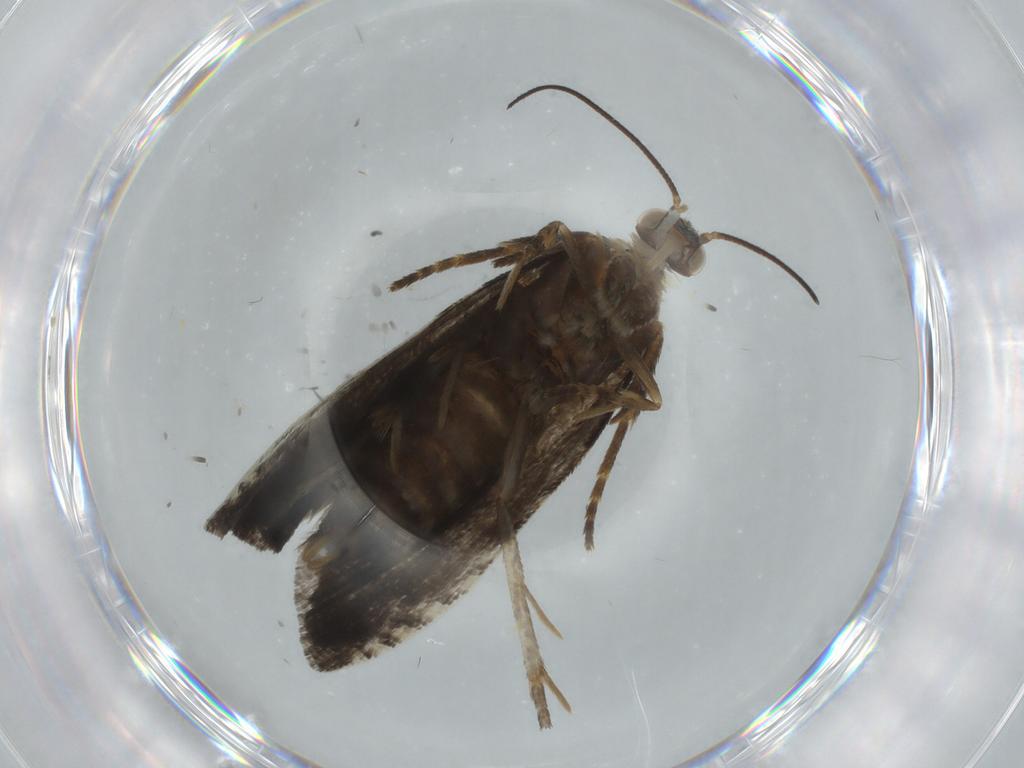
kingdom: Animalia
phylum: Arthropoda
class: Insecta
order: Lepidoptera
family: Tortricidae
